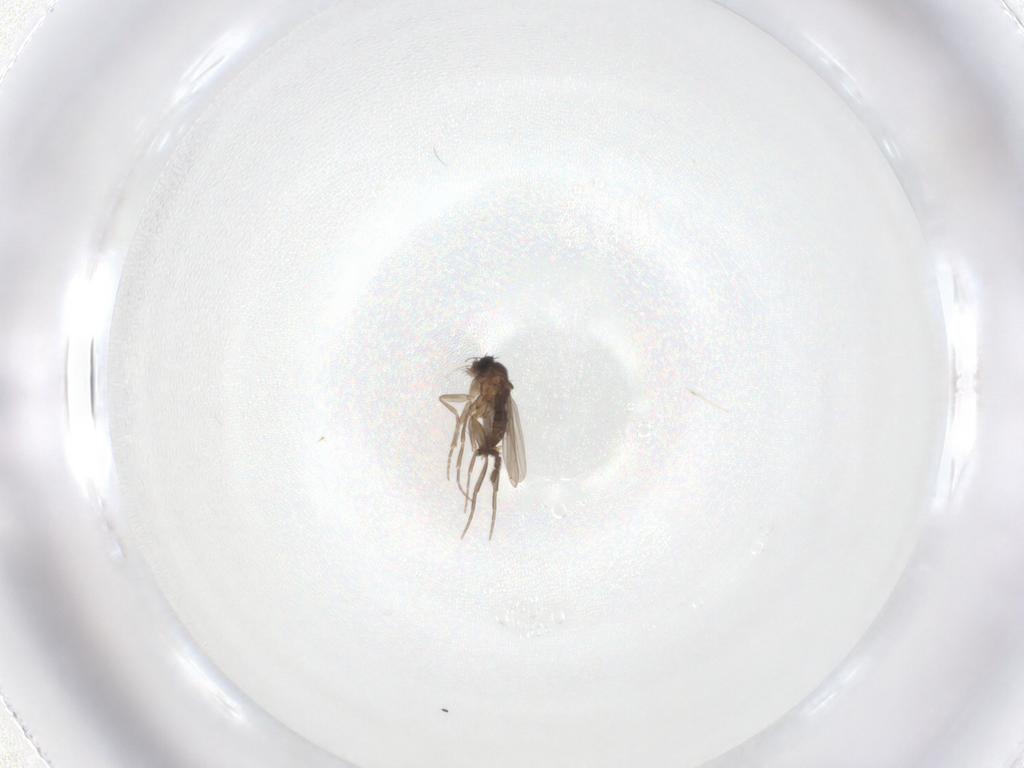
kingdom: Animalia
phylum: Arthropoda
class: Insecta
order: Diptera
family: Sciaridae
